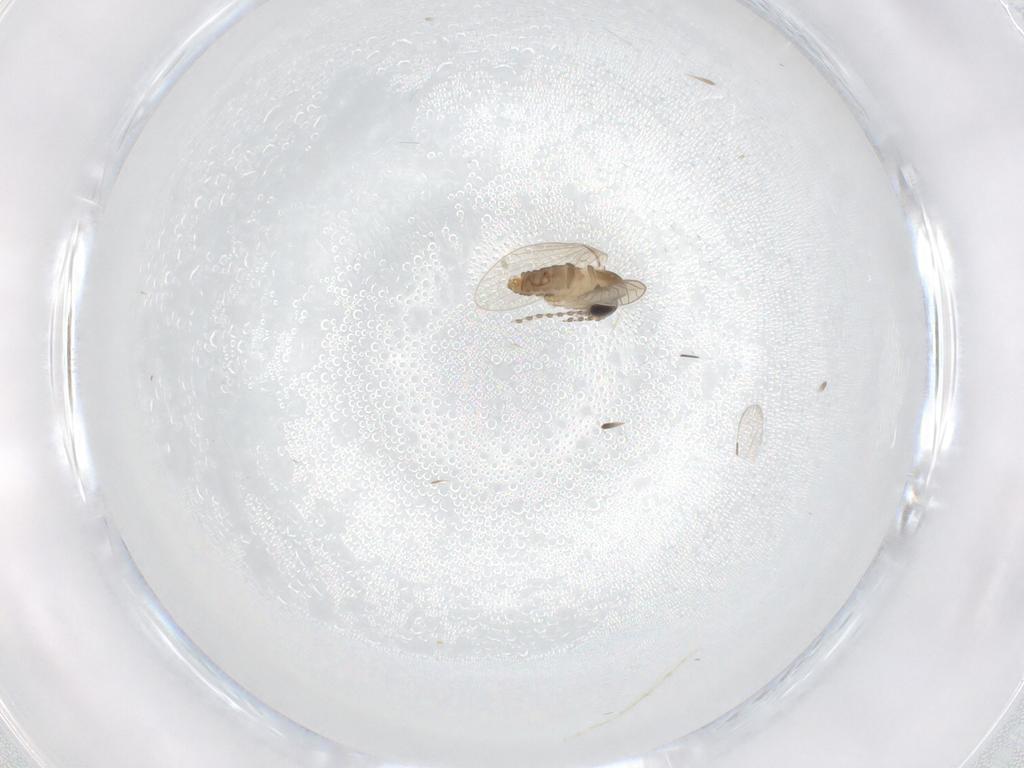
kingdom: Animalia
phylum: Arthropoda
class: Insecta
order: Diptera
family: Psychodidae
